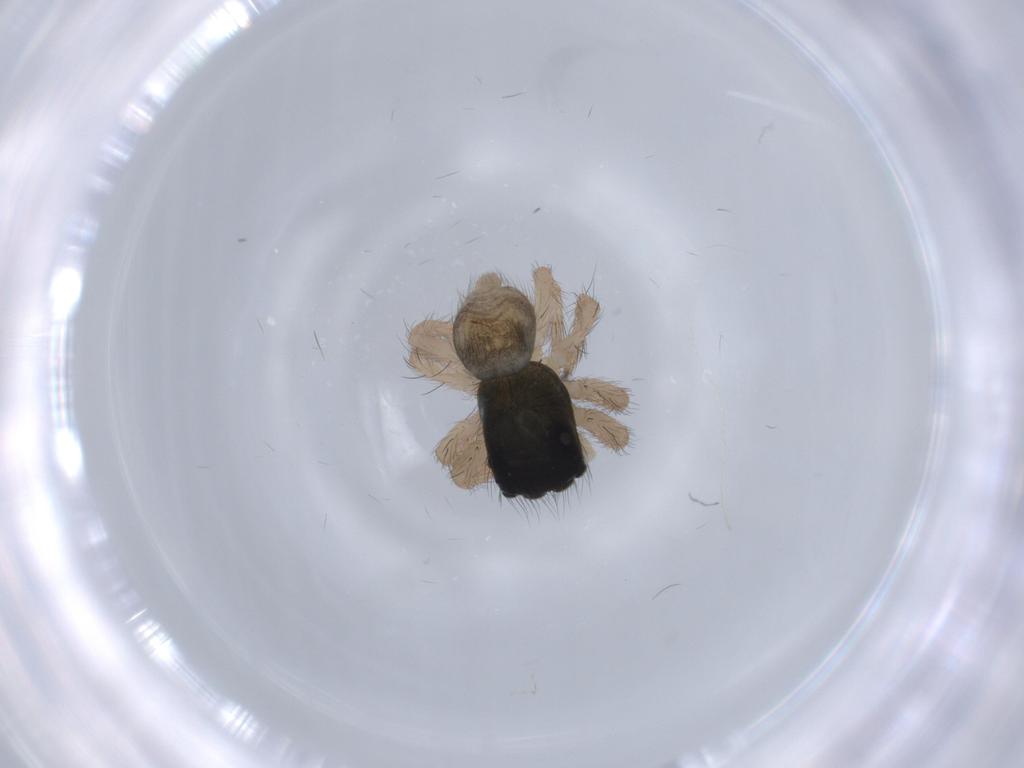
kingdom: Animalia
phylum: Arthropoda
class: Arachnida
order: Araneae
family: Salticidae
